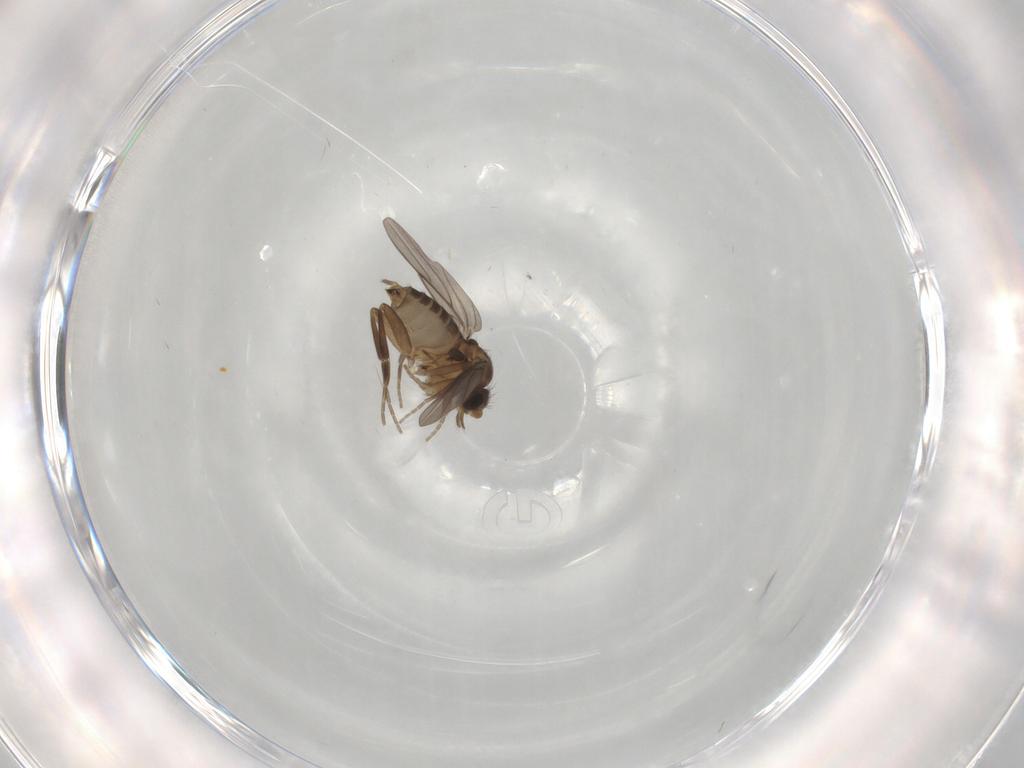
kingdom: Animalia
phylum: Arthropoda
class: Insecta
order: Diptera
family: Phoridae
